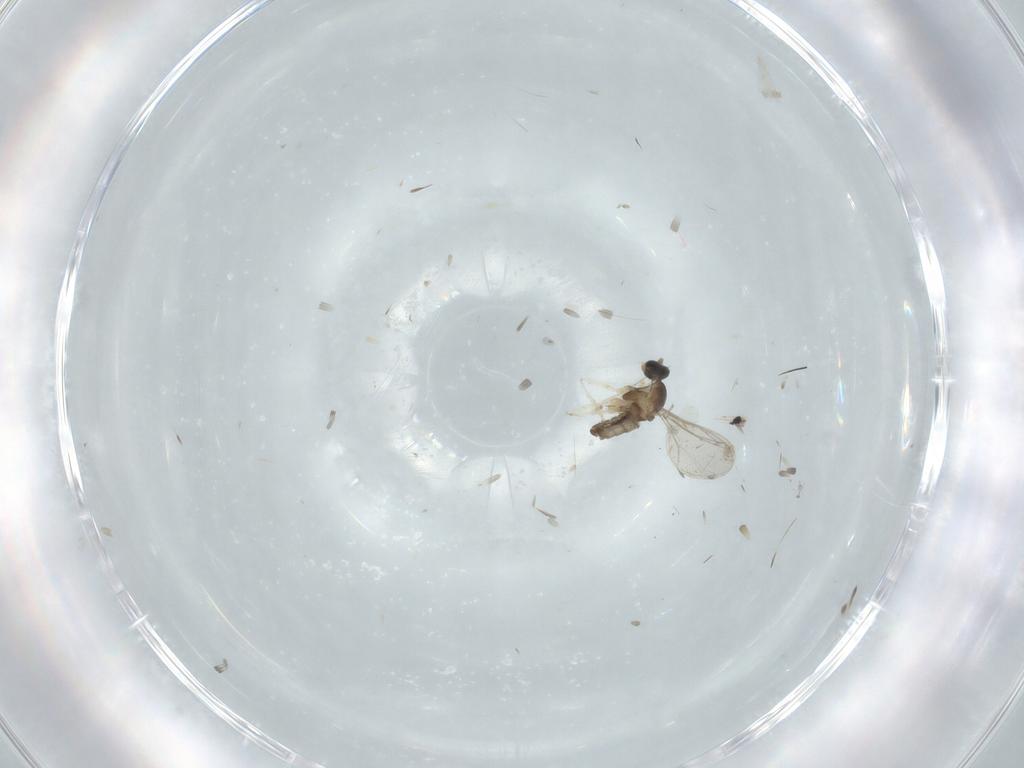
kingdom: Animalia
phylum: Arthropoda
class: Insecta
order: Diptera
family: Cecidomyiidae
